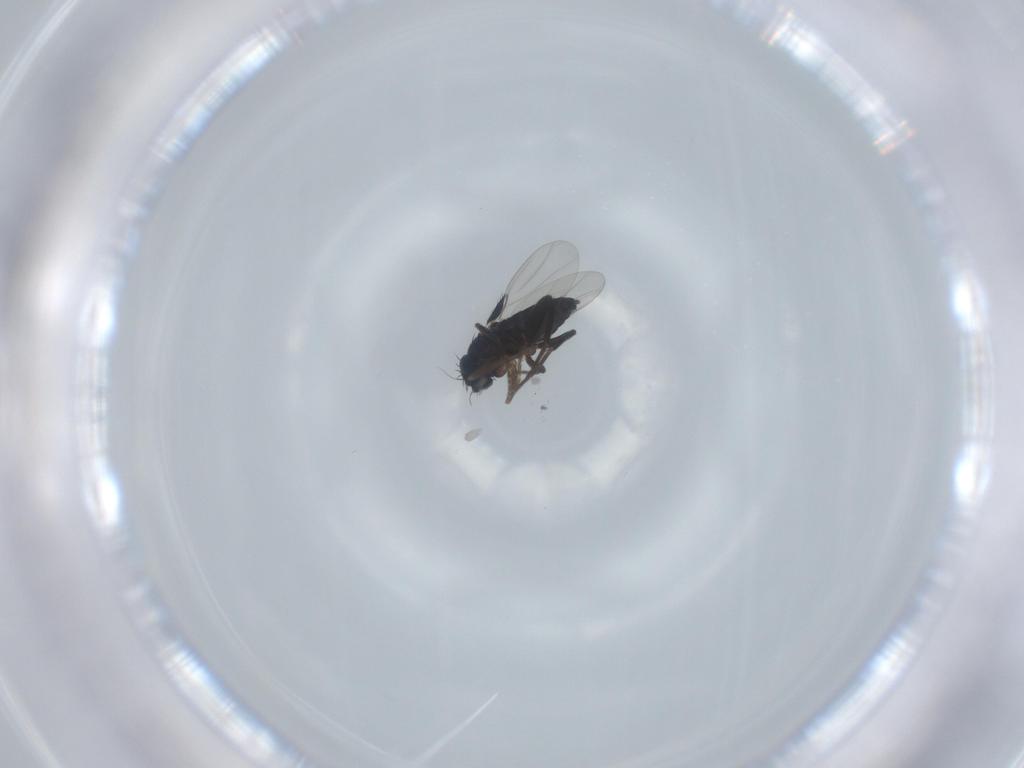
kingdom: Animalia
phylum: Arthropoda
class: Insecta
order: Diptera
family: Phoridae
